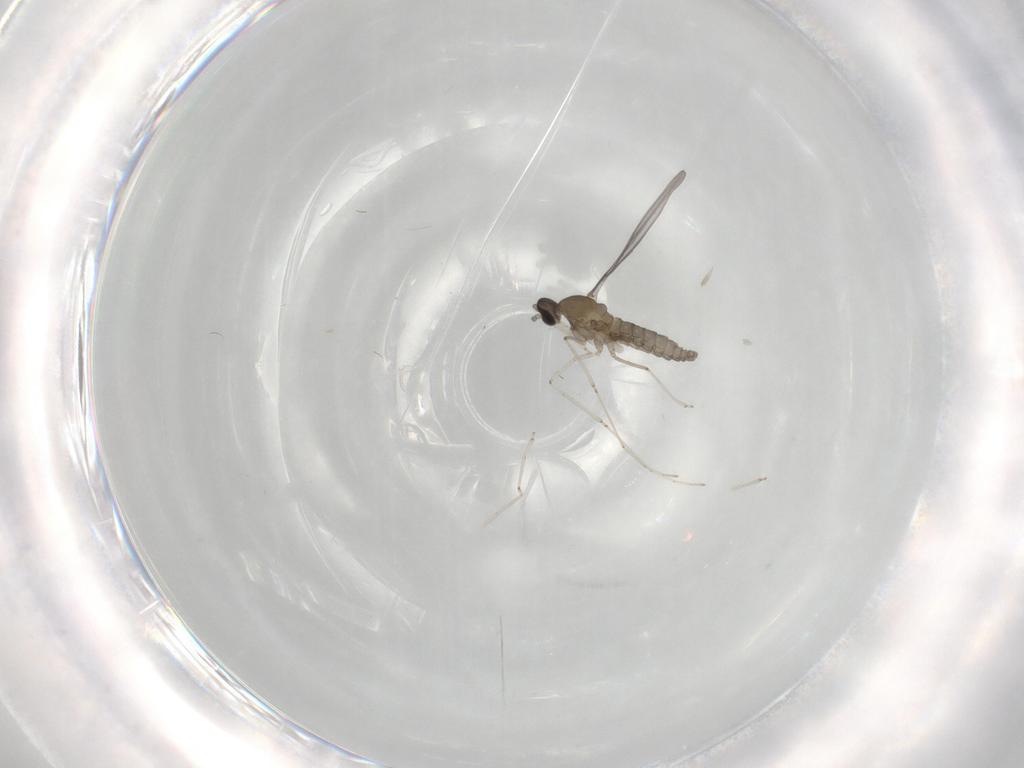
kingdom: Animalia
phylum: Arthropoda
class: Insecta
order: Diptera
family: Cecidomyiidae
